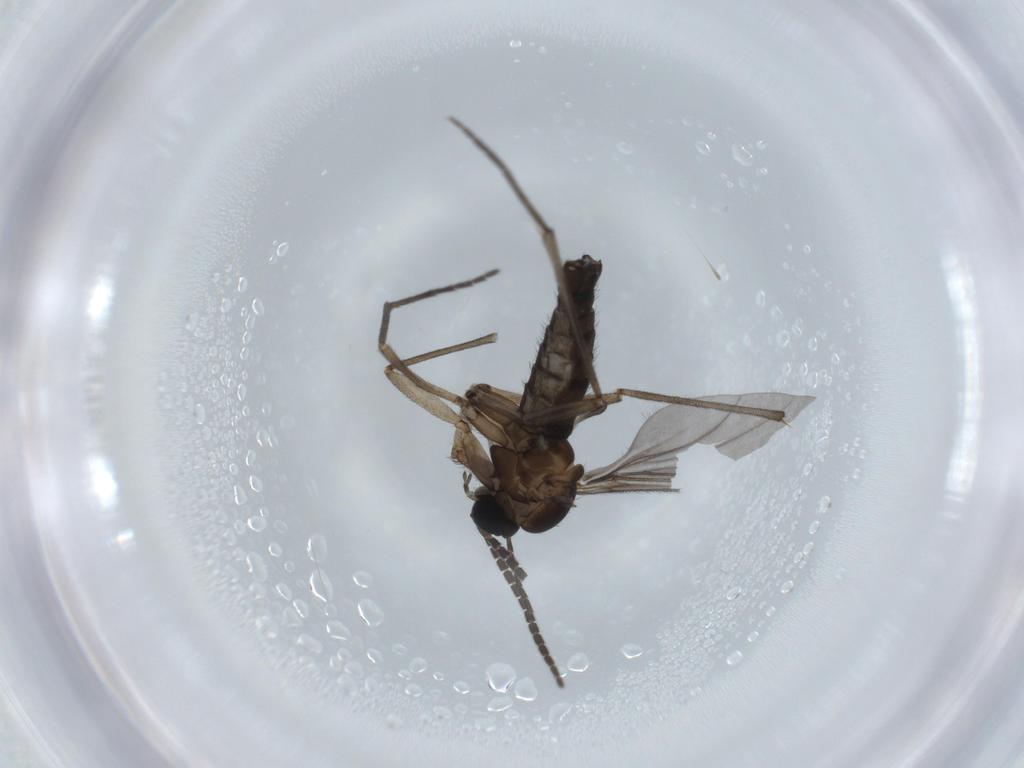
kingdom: Animalia
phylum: Arthropoda
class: Insecta
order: Diptera
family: Sciaridae
